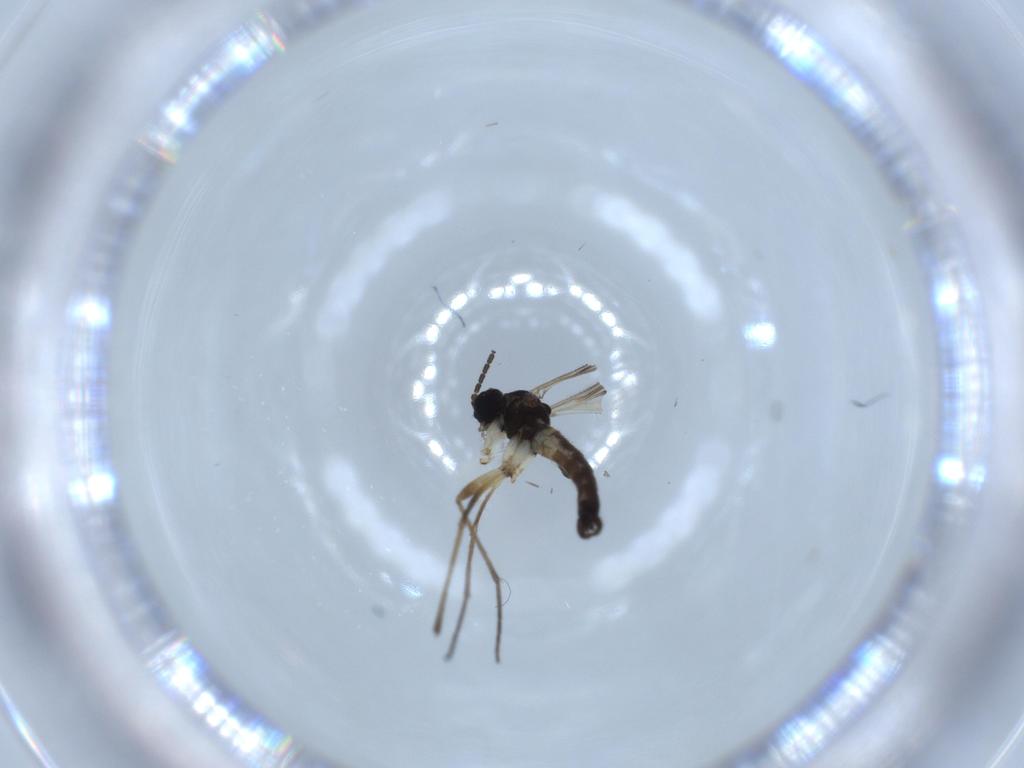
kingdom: Animalia
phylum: Arthropoda
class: Insecta
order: Diptera
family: Sciaridae
